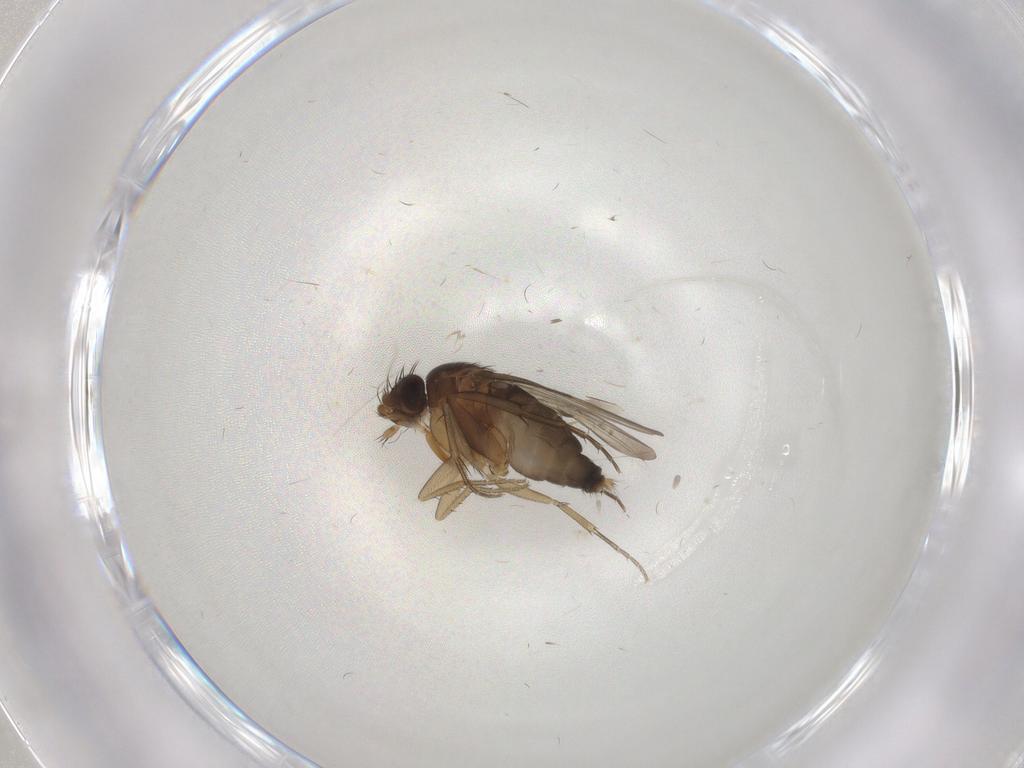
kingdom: Animalia
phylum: Arthropoda
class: Insecta
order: Diptera
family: Phoridae
